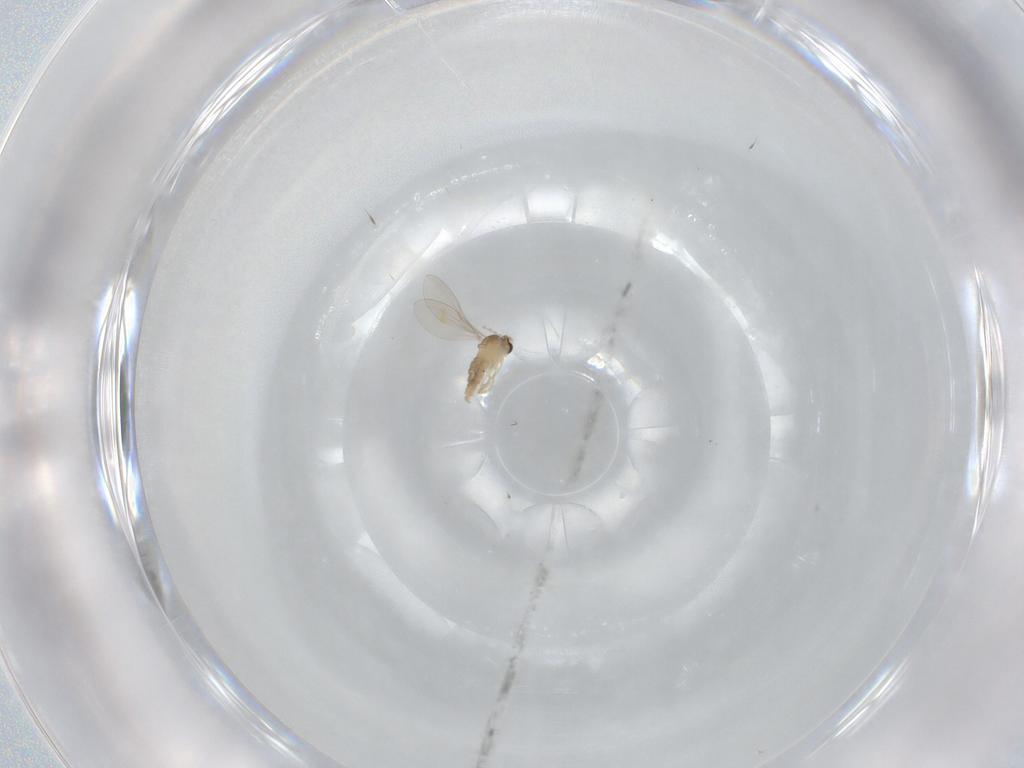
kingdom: Animalia
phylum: Arthropoda
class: Insecta
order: Diptera
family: Cecidomyiidae
